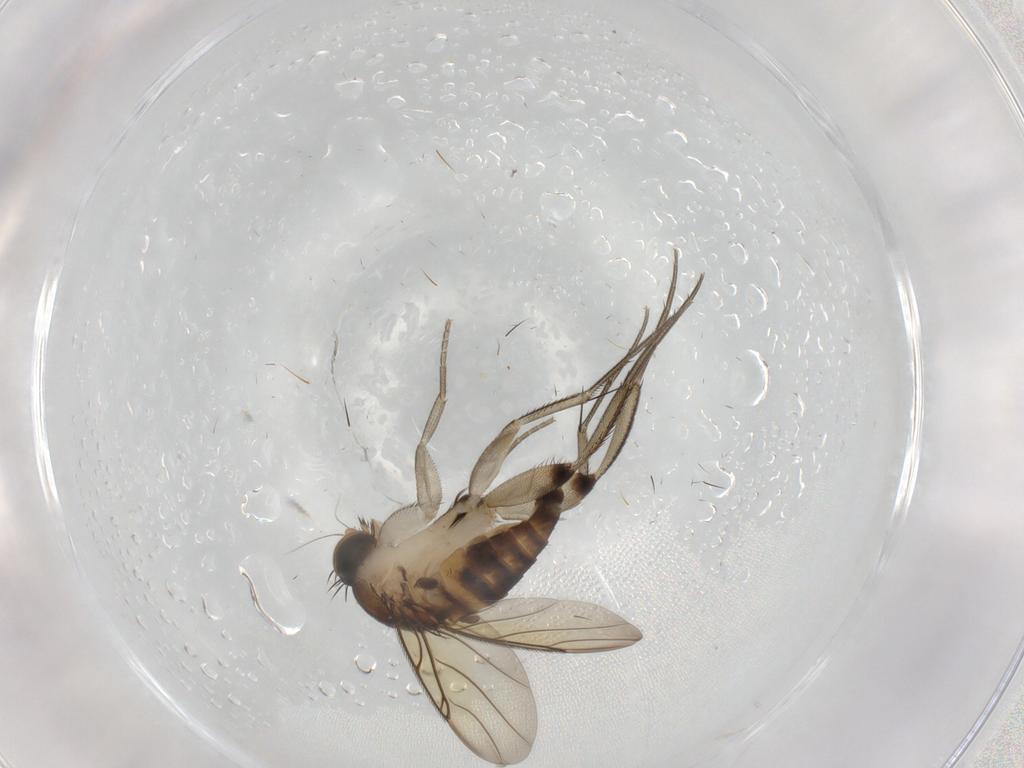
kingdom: Animalia
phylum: Arthropoda
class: Insecta
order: Diptera
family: Phoridae
